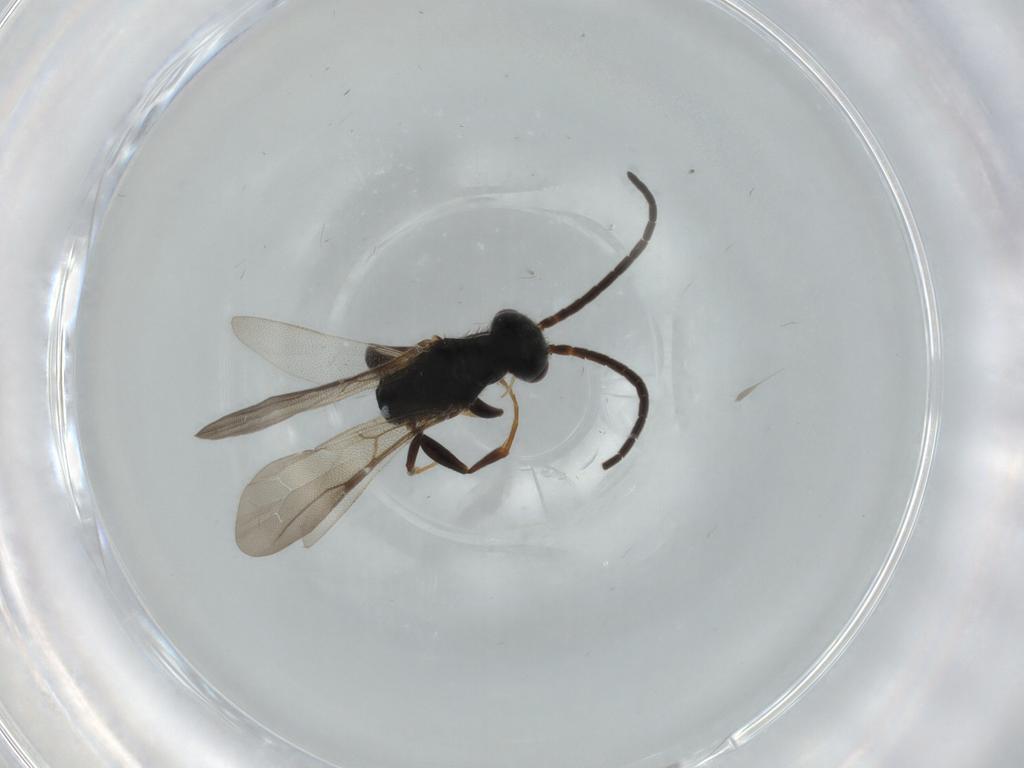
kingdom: Animalia
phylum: Arthropoda
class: Insecta
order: Hymenoptera
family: Bethylidae
